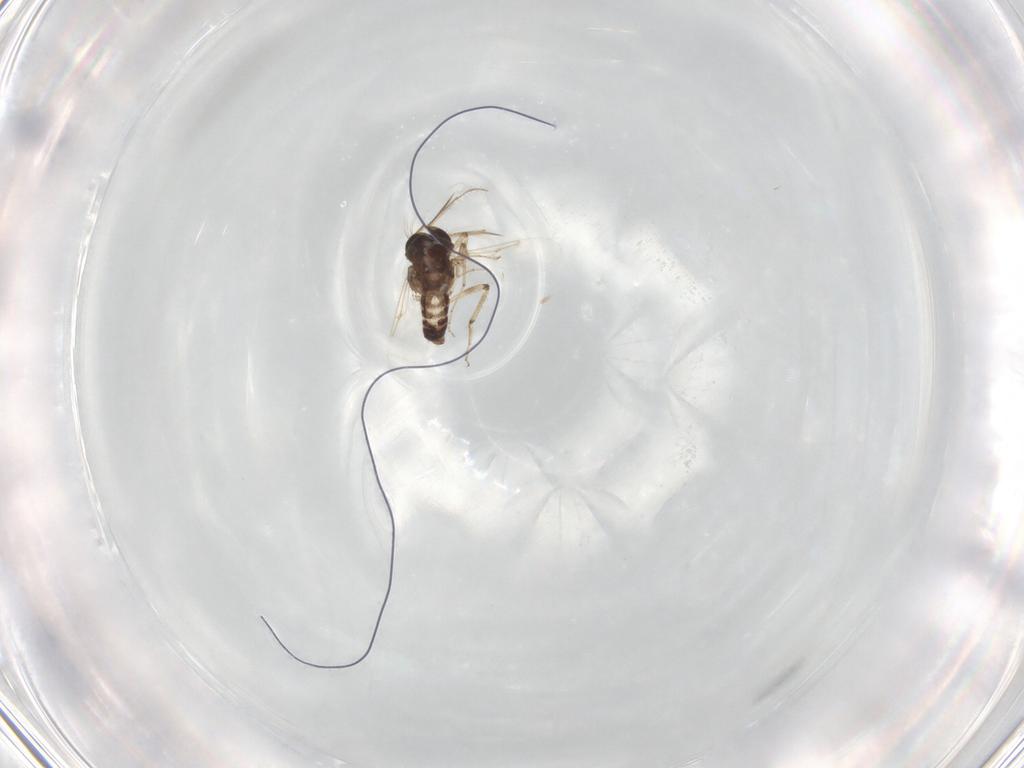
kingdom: Animalia
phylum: Arthropoda
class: Insecta
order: Diptera
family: Ceratopogonidae
